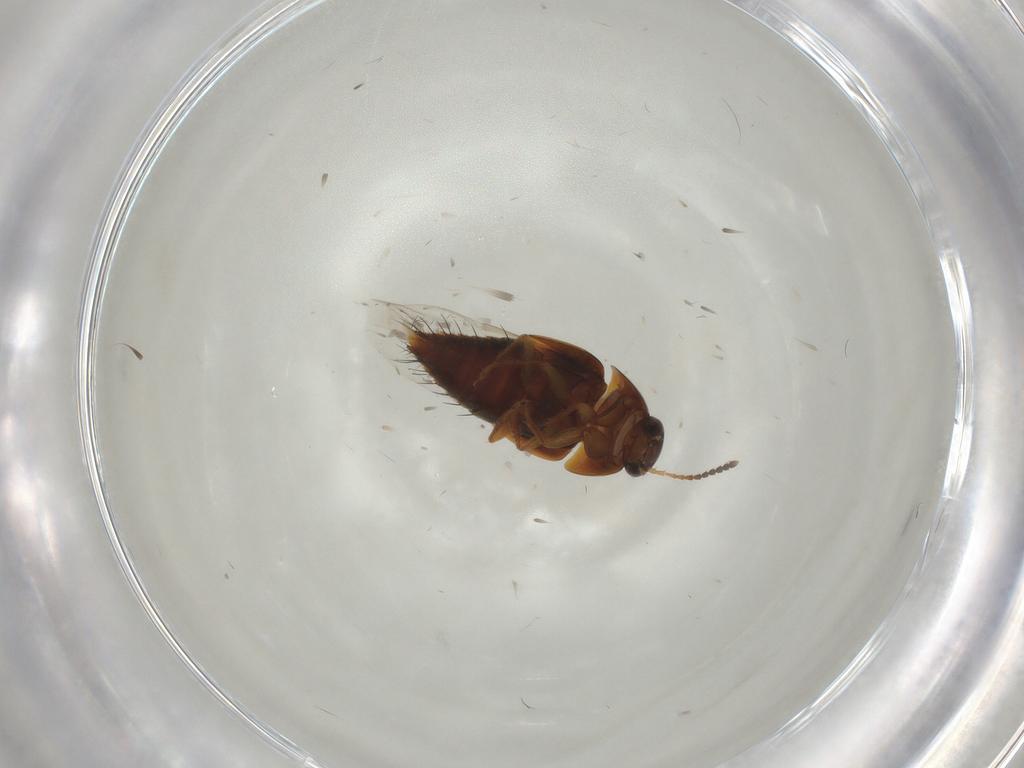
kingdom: Animalia
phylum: Arthropoda
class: Insecta
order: Coleoptera
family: Staphylinidae
